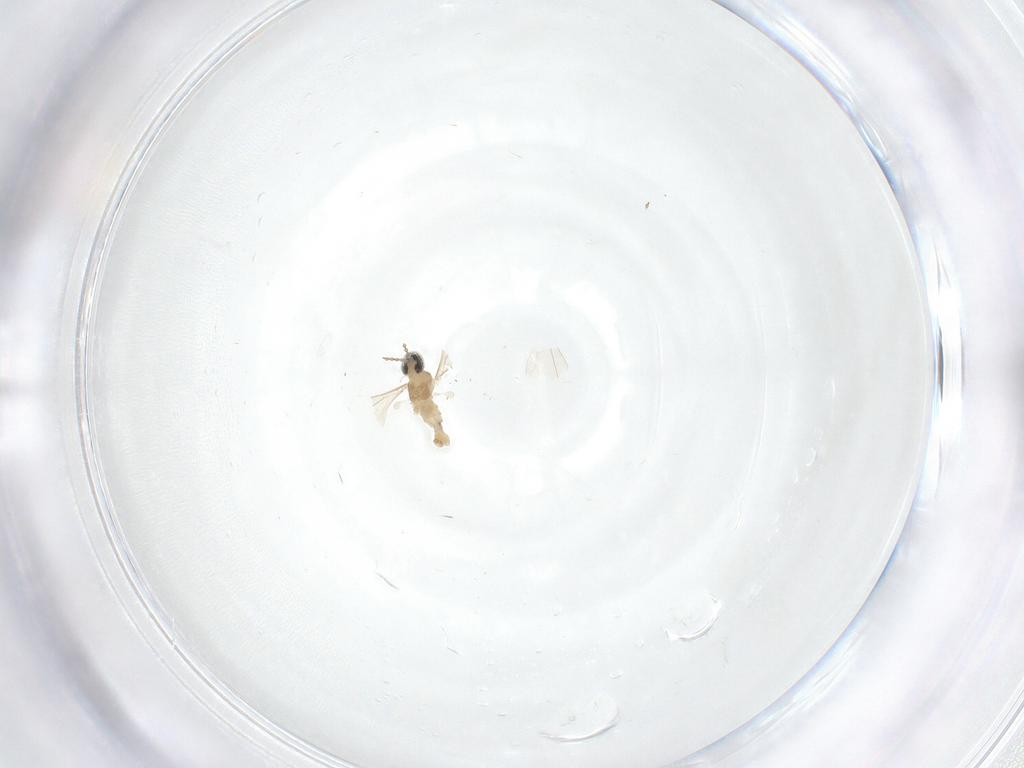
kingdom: Animalia
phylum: Arthropoda
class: Insecta
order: Diptera
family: Cecidomyiidae
